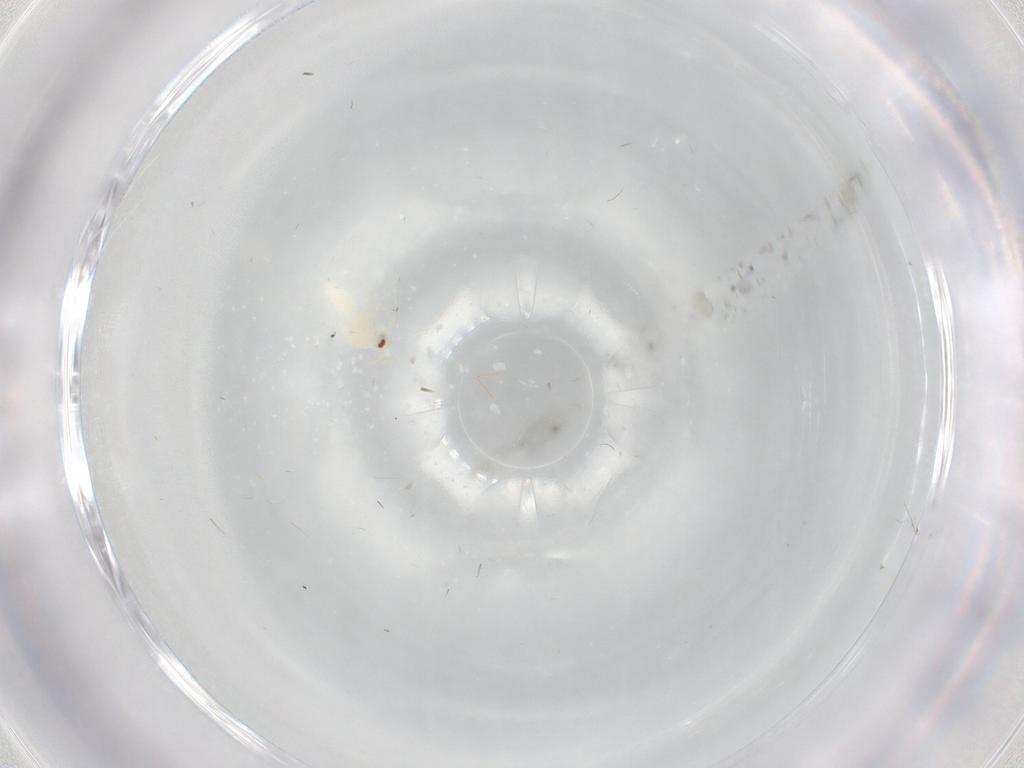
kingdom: Animalia
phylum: Arthropoda
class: Insecta
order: Hemiptera
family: Aleyrodidae
